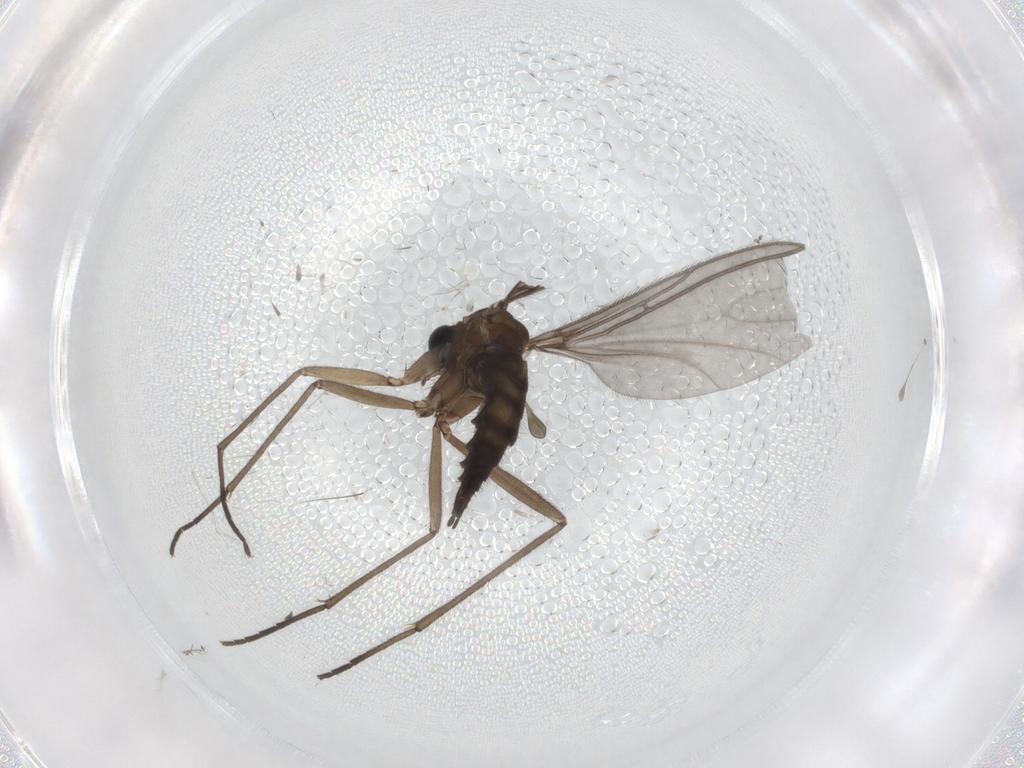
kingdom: Animalia
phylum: Arthropoda
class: Insecta
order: Diptera
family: Sciaridae
